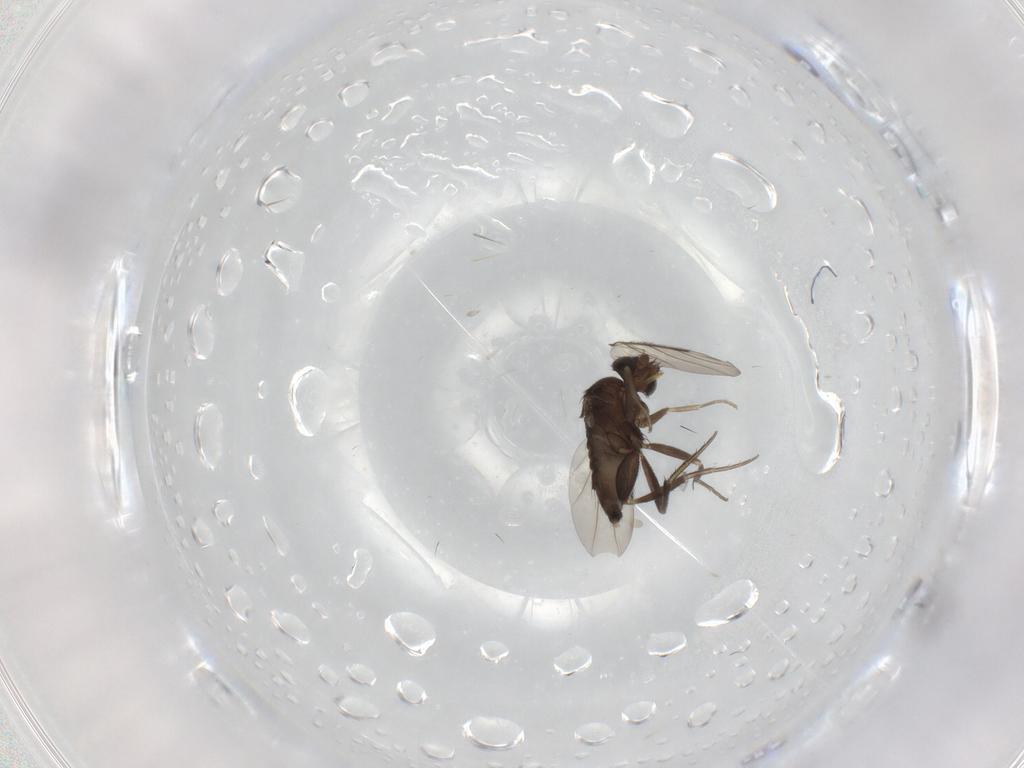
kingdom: Animalia
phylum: Arthropoda
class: Insecta
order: Diptera
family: Phoridae
